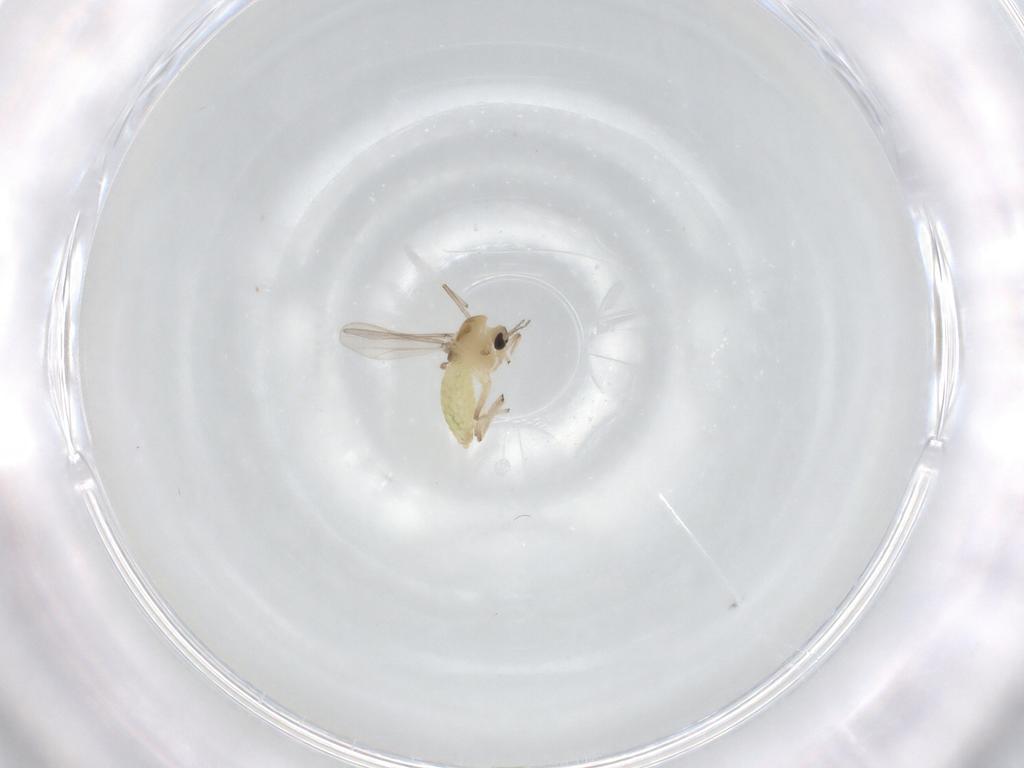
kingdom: Animalia
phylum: Arthropoda
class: Insecta
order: Diptera
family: Chironomidae
